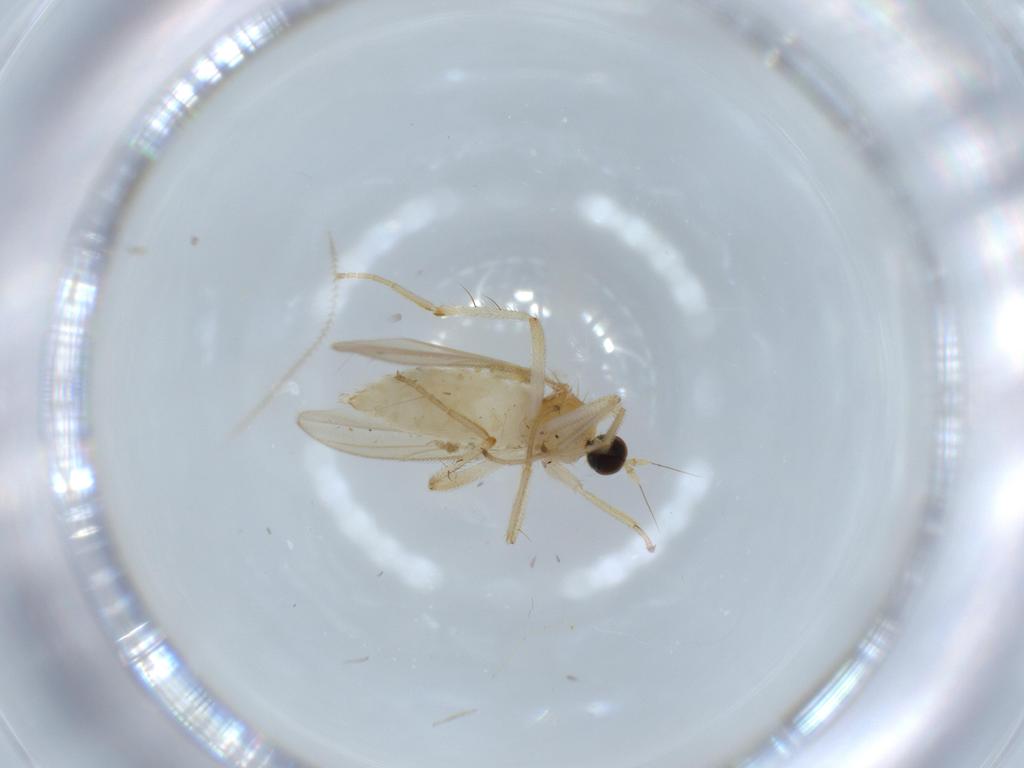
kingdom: Animalia
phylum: Arthropoda
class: Insecta
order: Diptera
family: Hybotidae
